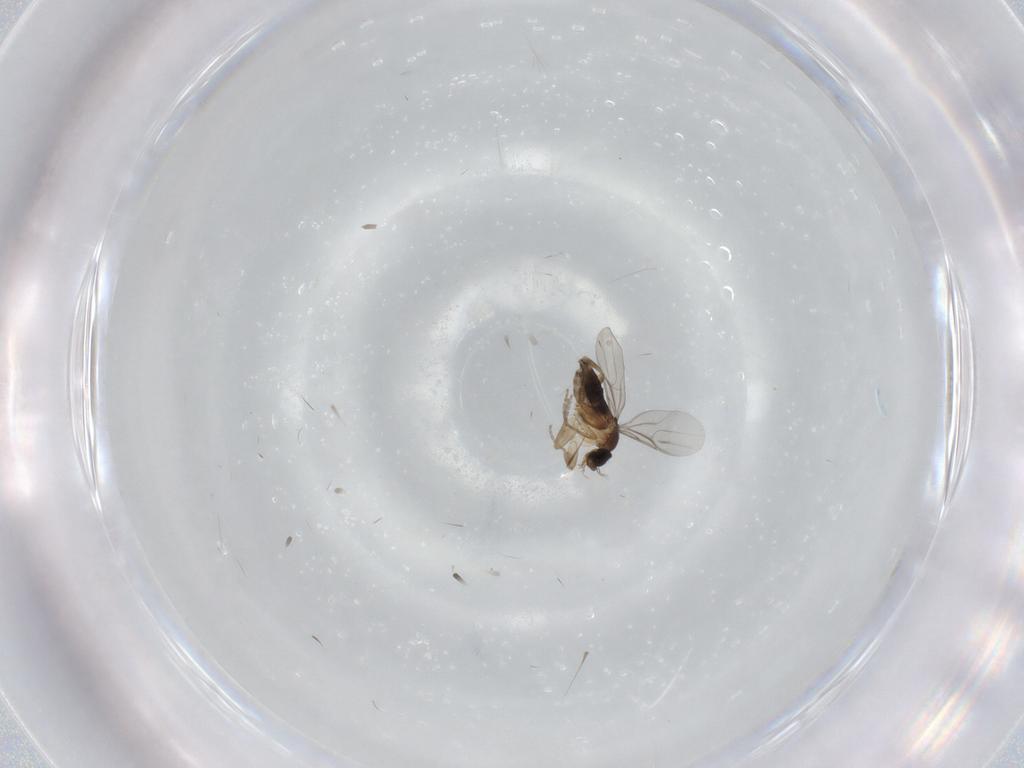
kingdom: Animalia
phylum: Arthropoda
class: Insecta
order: Diptera
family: Phoridae
